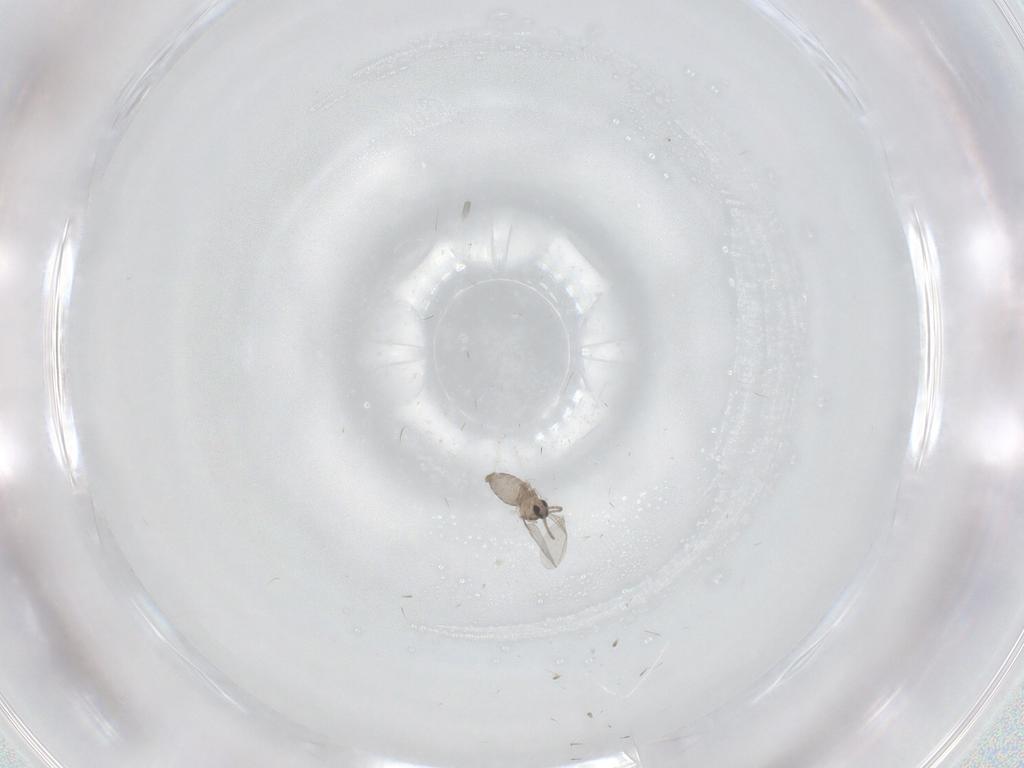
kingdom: Animalia
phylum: Arthropoda
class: Insecta
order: Diptera
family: Cecidomyiidae
